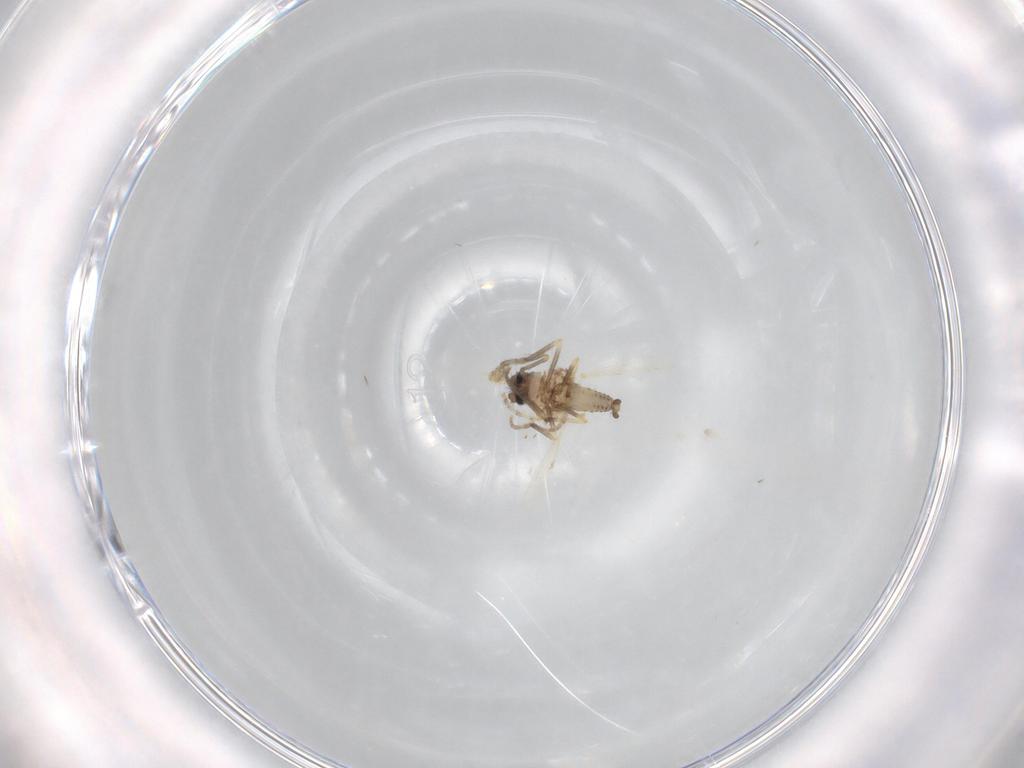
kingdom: Animalia
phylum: Arthropoda
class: Insecta
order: Diptera
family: Ceratopogonidae
